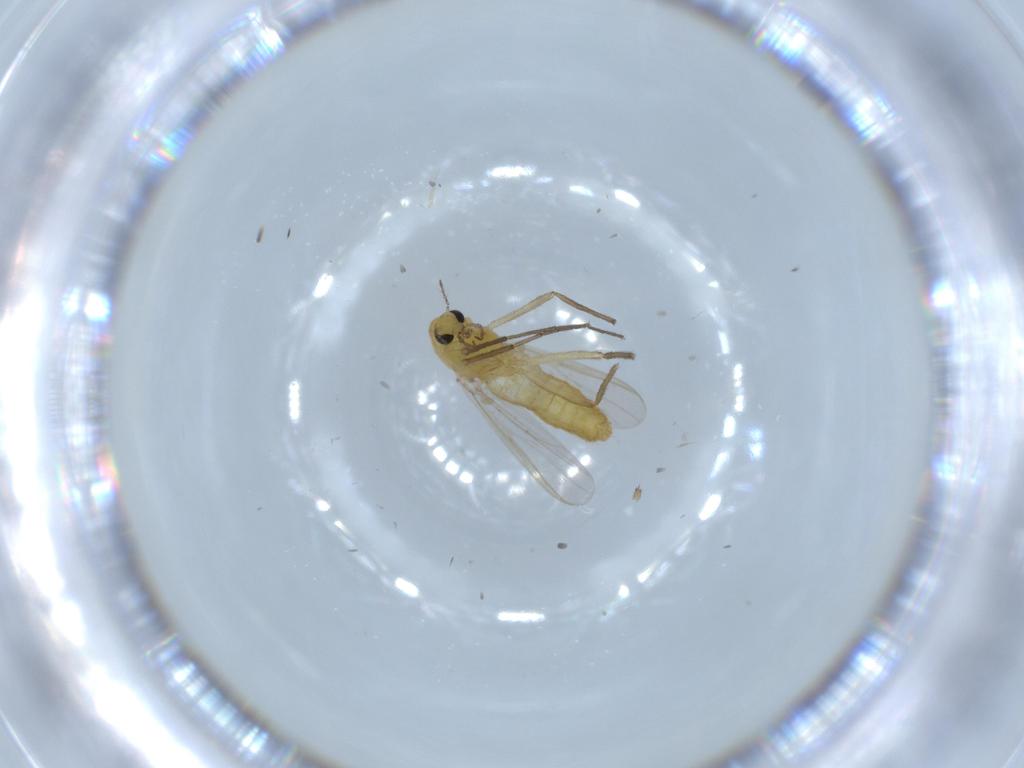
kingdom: Animalia
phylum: Arthropoda
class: Insecta
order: Diptera
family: Chironomidae
